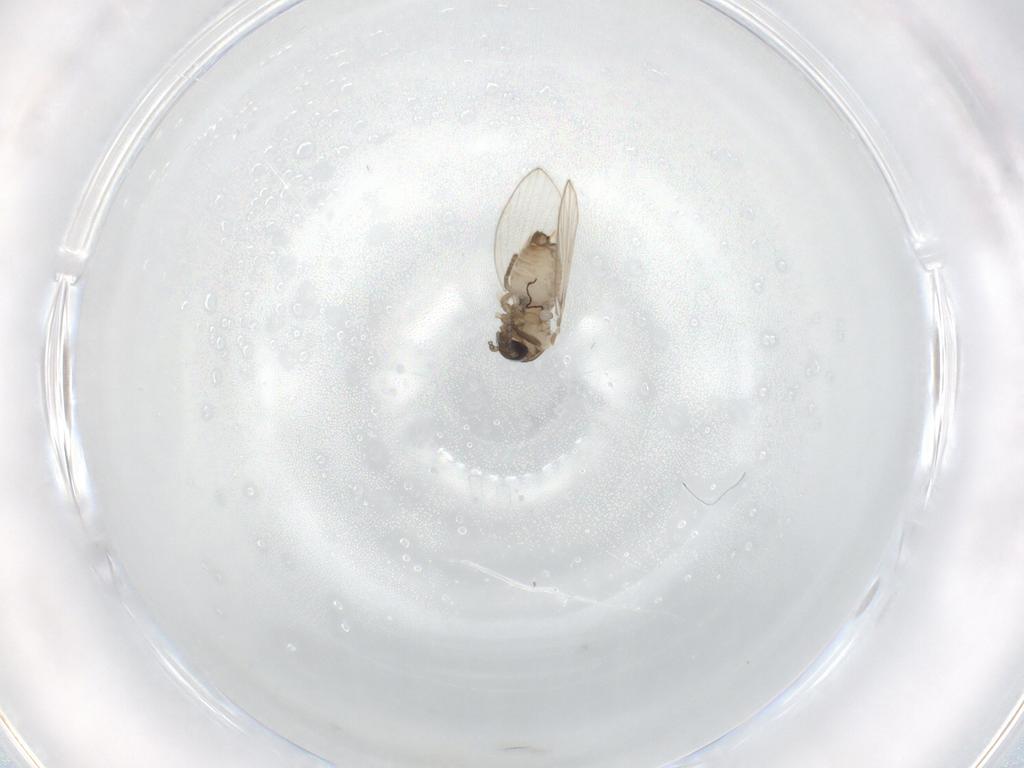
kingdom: Animalia
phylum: Arthropoda
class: Insecta
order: Diptera
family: Psychodidae
